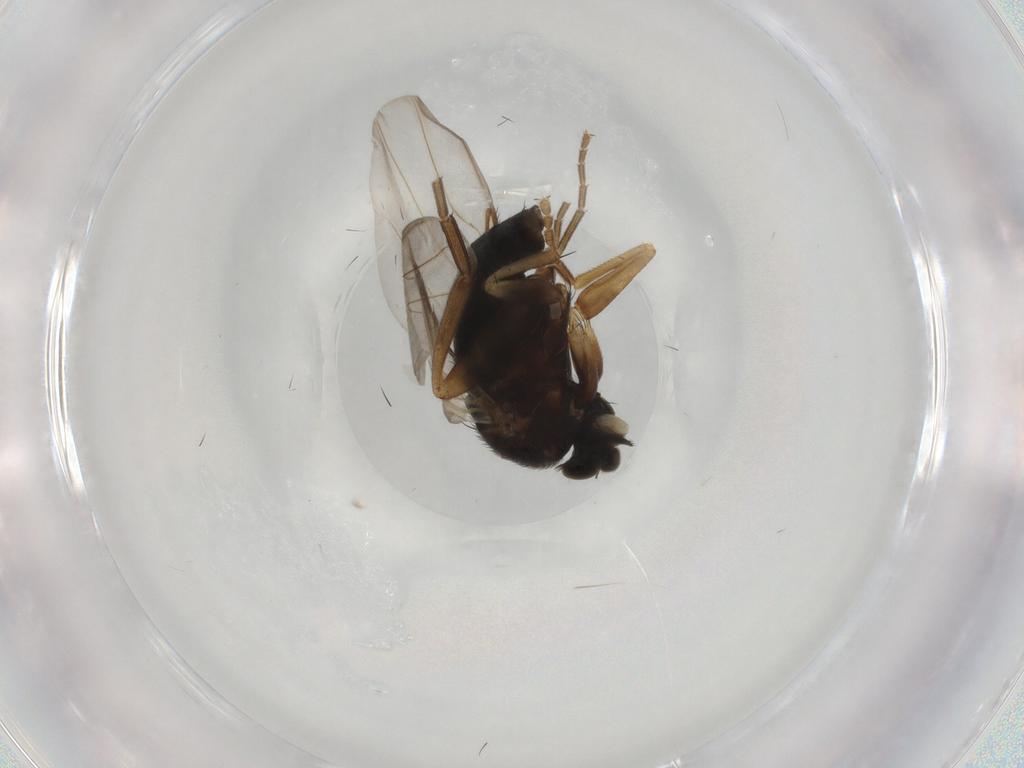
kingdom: Animalia
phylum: Arthropoda
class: Insecta
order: Diptera
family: Phoridae
